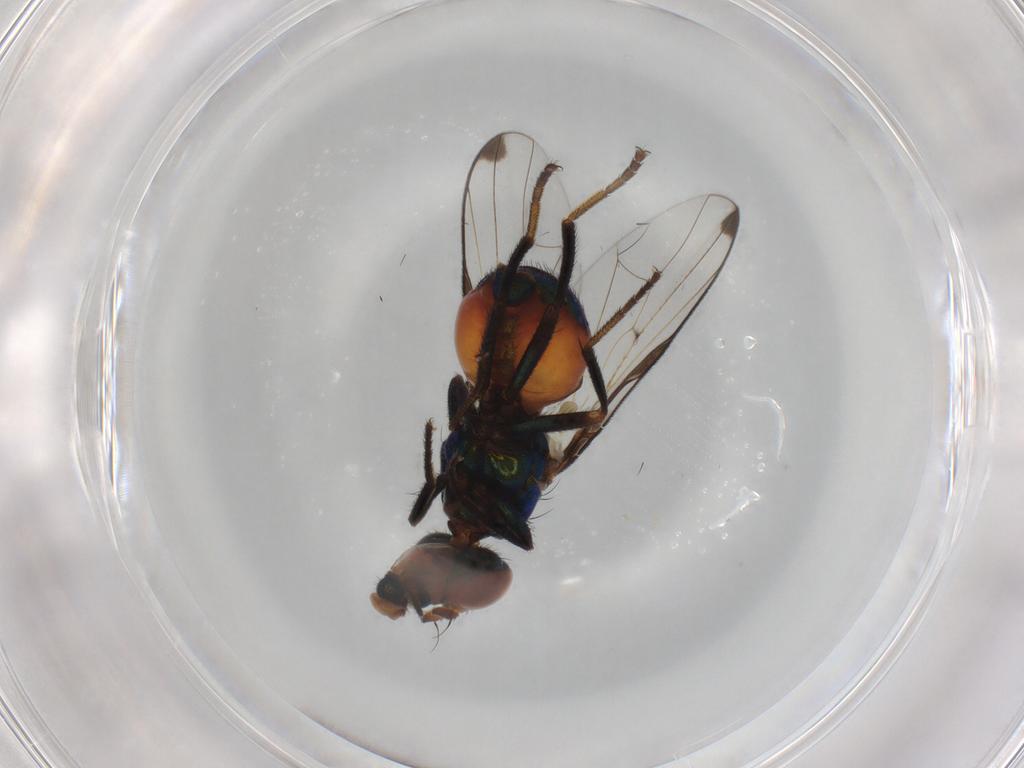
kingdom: Animalia
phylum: Arthropoda
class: Insecta
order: Diptera
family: Platystomatidae
